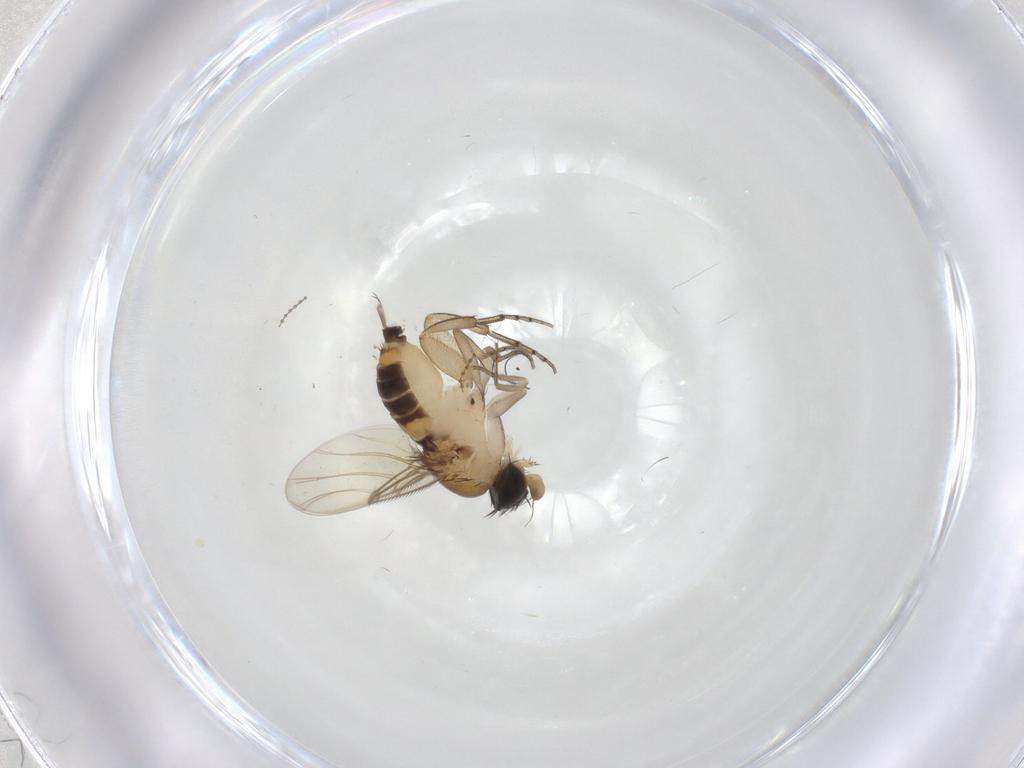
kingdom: Animalia
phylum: Arthropoda
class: Insecta
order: Diptera
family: Phoridae
